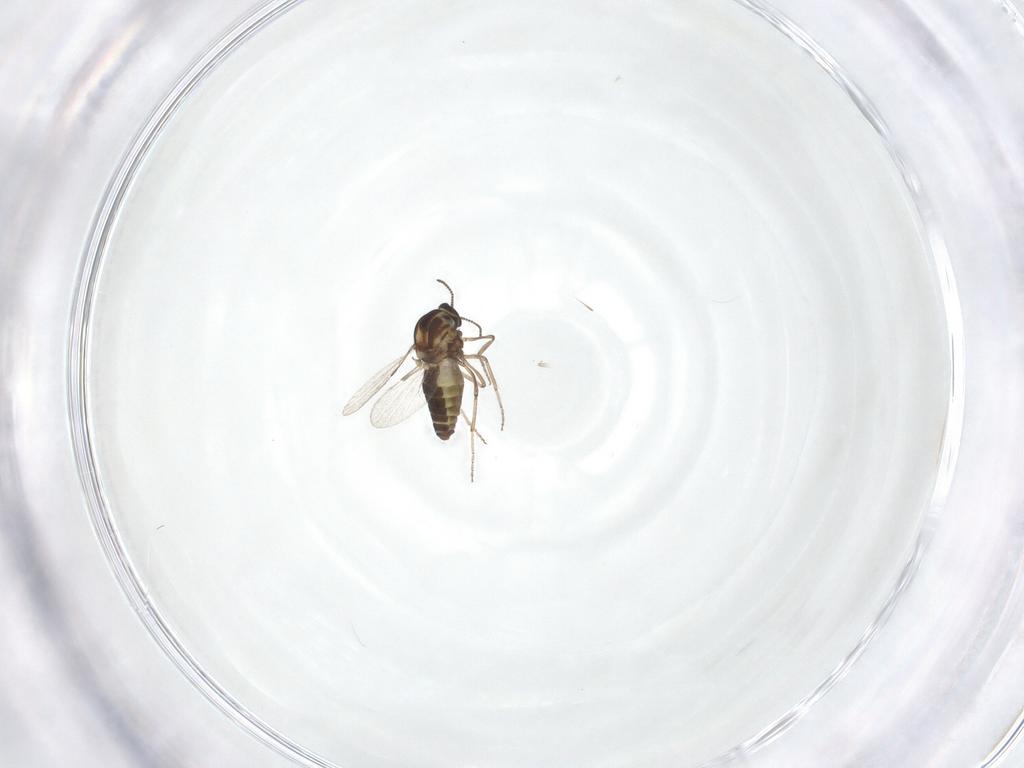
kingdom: Animalia
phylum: Arthropoda
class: Insecta
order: Diptera
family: Ceratopogonidae
